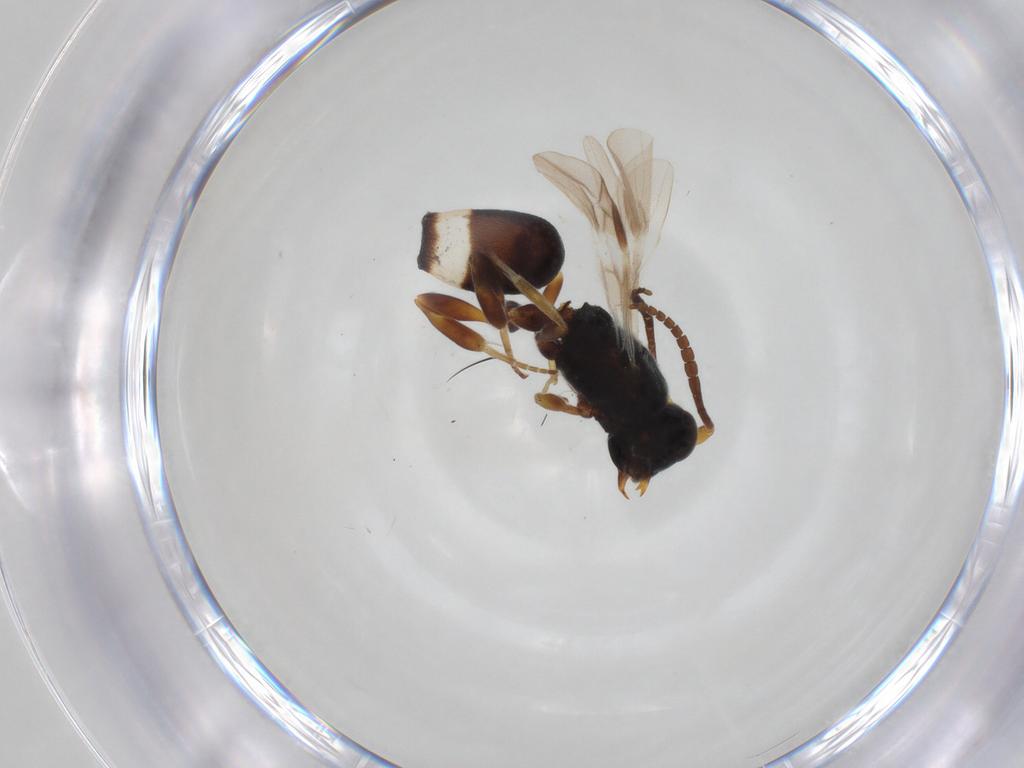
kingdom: Animalia
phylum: Arthropoda
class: Insecta
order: Hymenoptera
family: Braconidae
